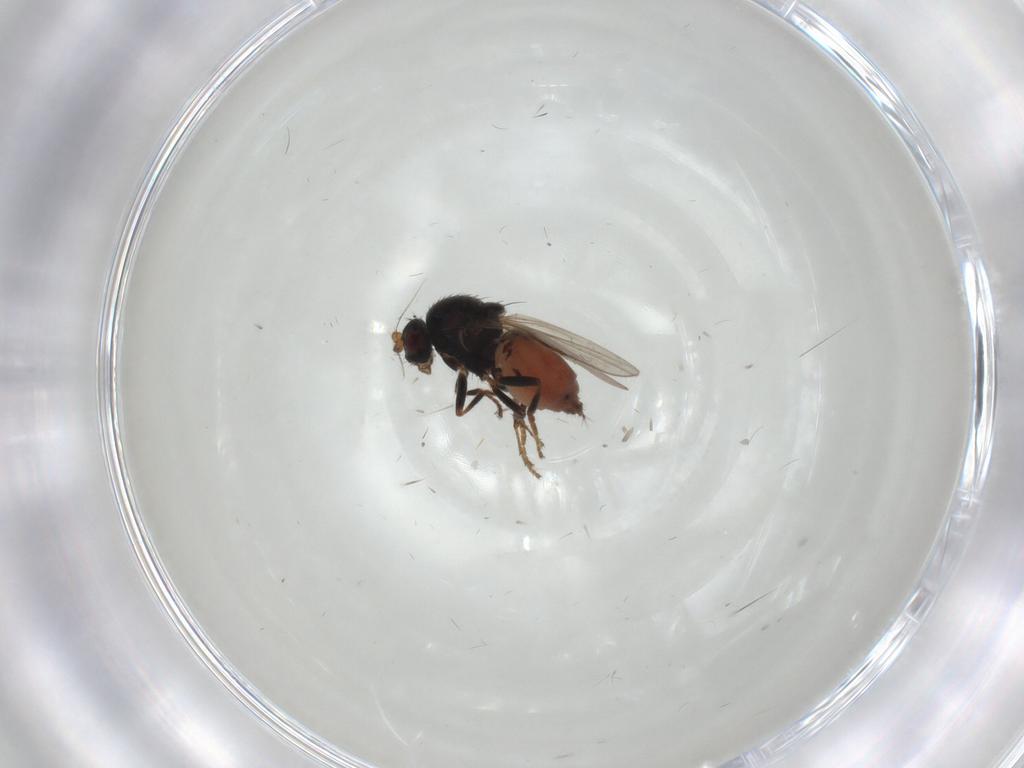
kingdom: Animalia
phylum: Arthropoda
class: Insecta
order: Diptera
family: Sphaeroceridae
